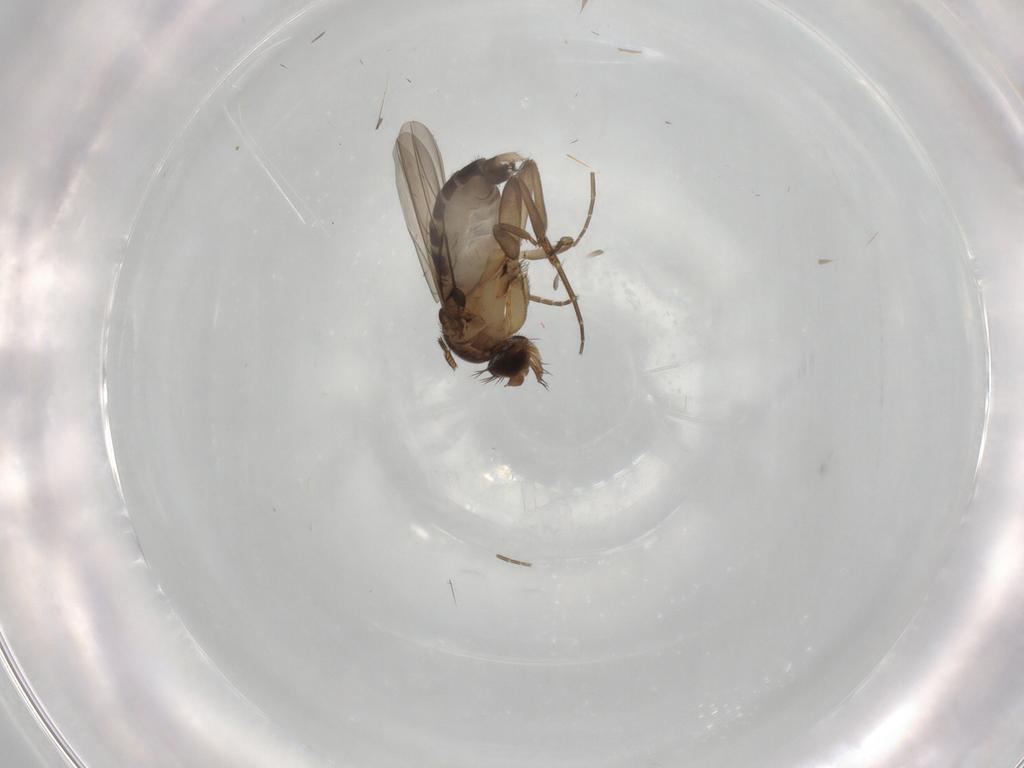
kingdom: Animalia
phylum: Arthropoda
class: Insecta
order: Diptera
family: Phoridae
